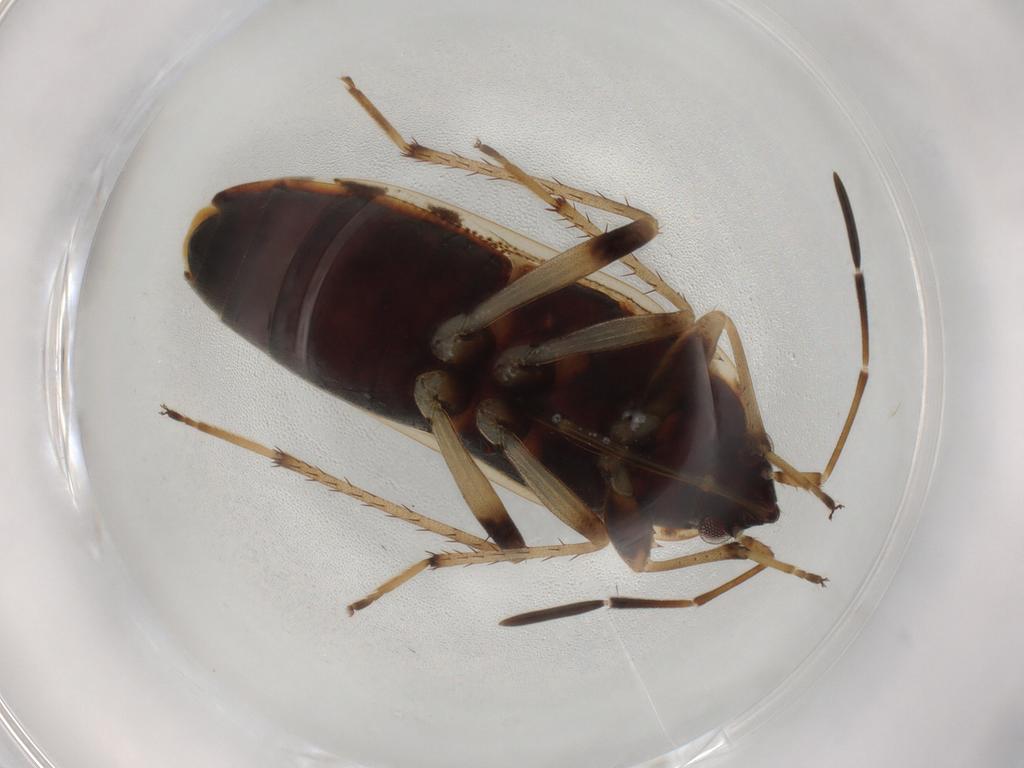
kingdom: Animalia
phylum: Arthropoda
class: Insecta
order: Hemiptera
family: Rhyparochromidae
